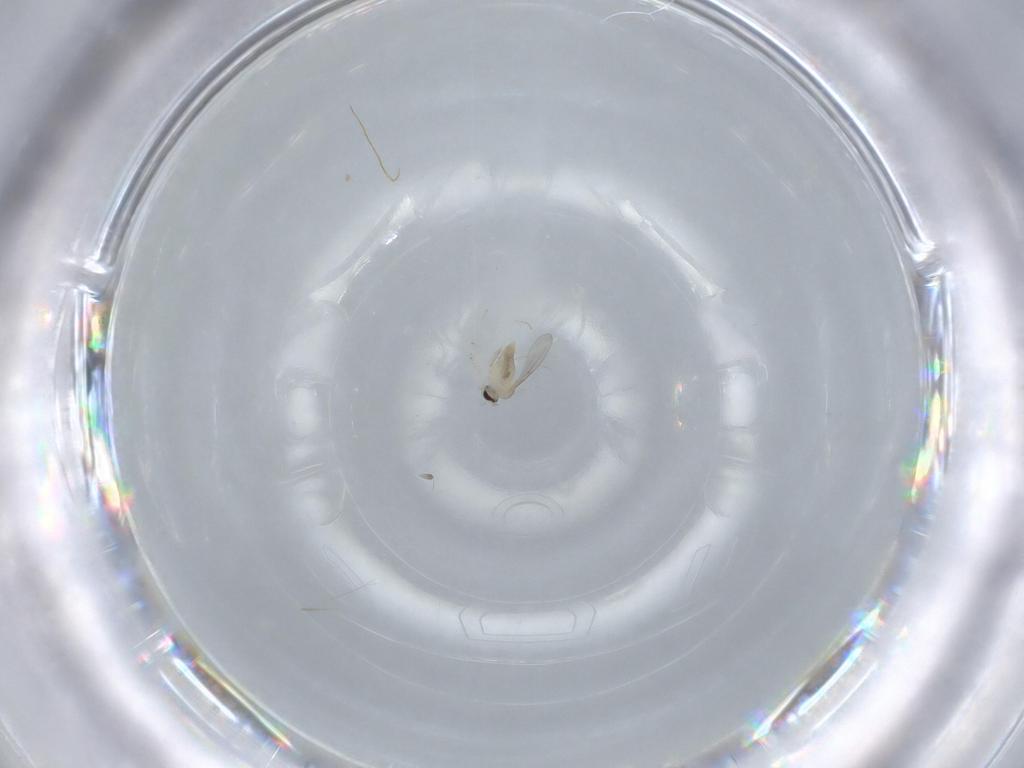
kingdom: Animalia
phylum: Arthropoda
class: Insecta
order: Diptera
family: Cecidomyiidae
